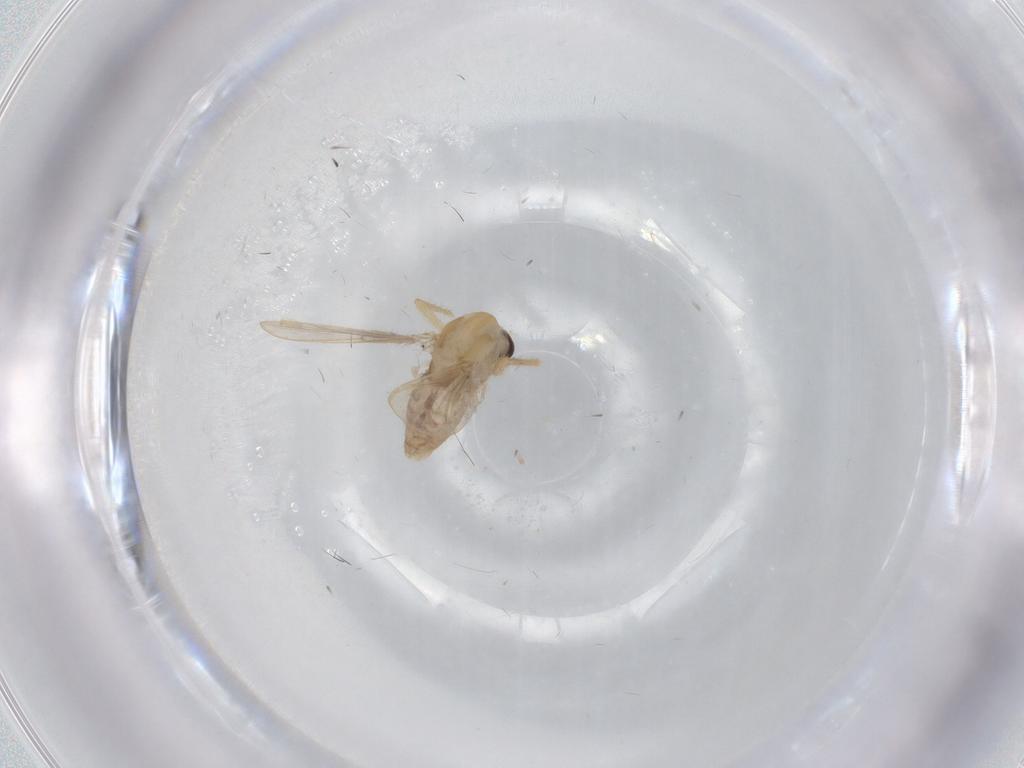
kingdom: Animalia
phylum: Arthropoda
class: Insecta
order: Diptera
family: Chironomidae
